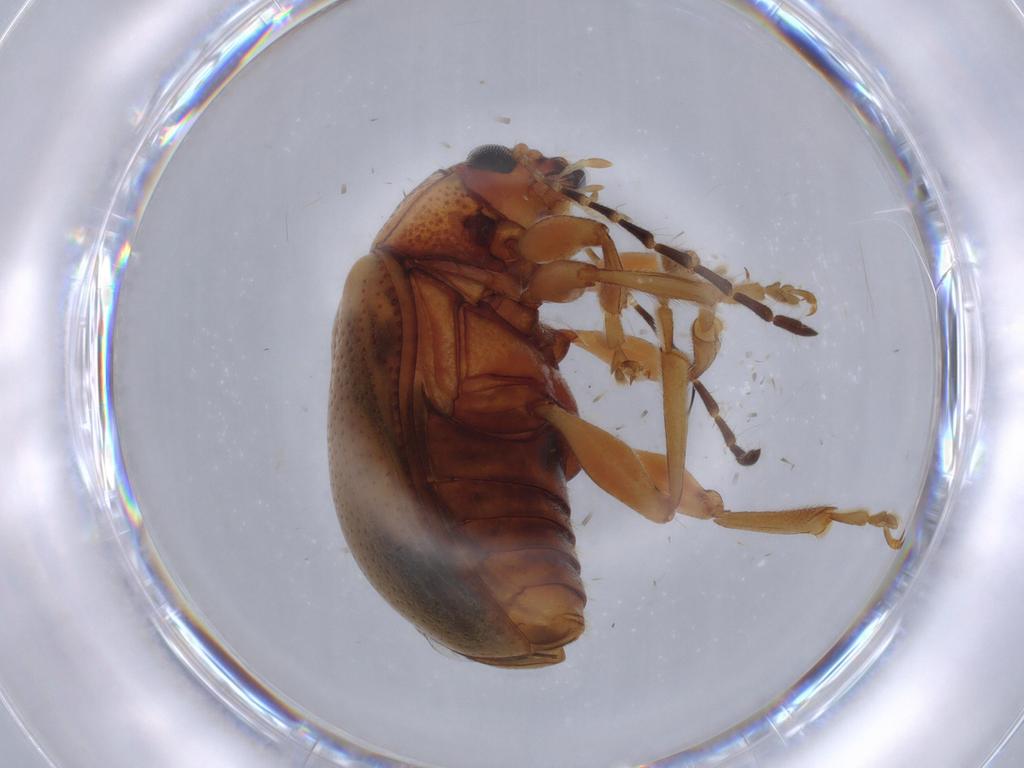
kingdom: Animalia
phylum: Arthropoda
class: Insecta
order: Coleoptera
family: Chrysomelidae
